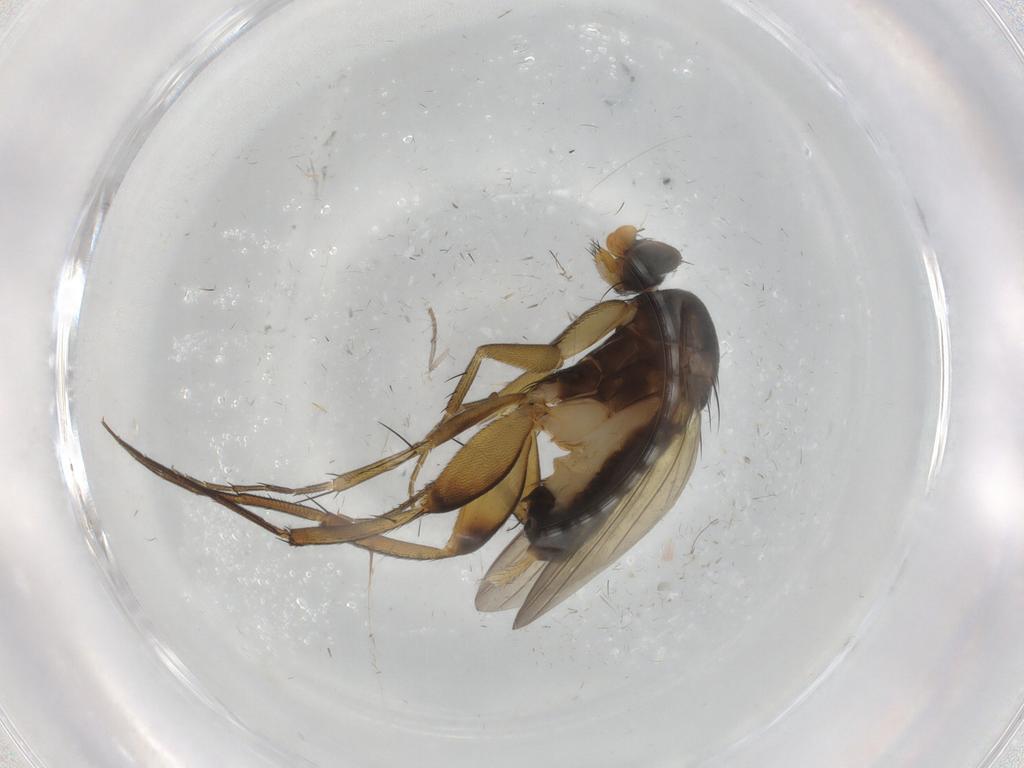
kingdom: Animalia
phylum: Arthropoda
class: Insecta
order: Diptera
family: Phoridae
